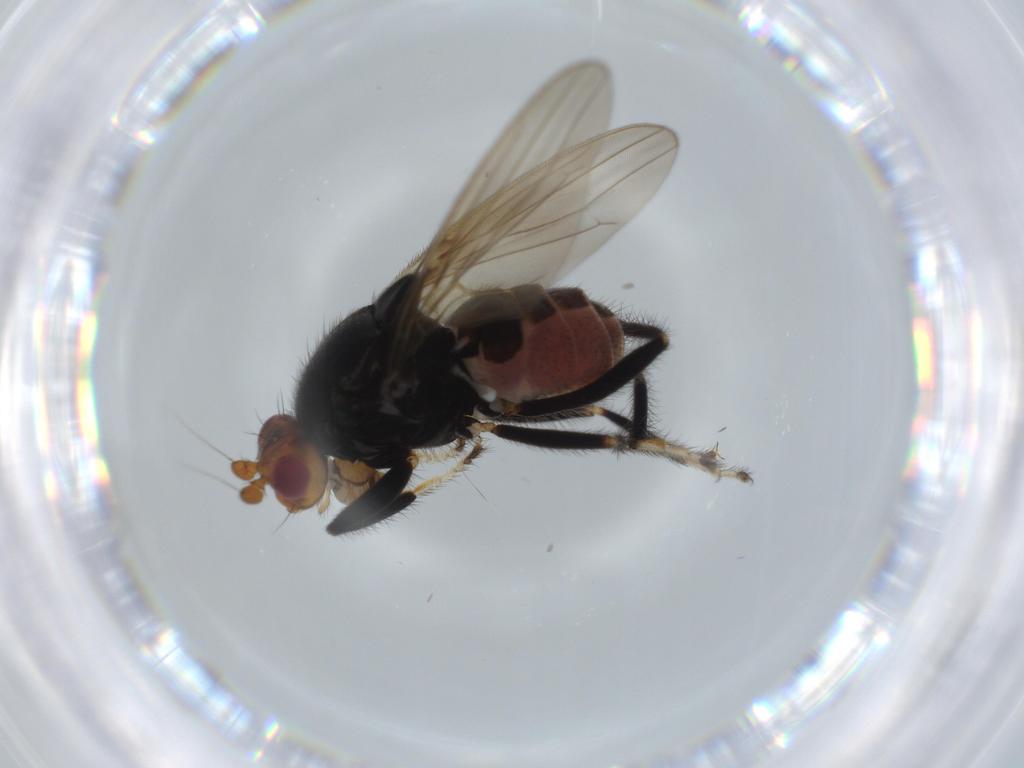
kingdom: Animalia
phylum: Arthropoda
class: Insecta
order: Diptera
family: Sphaeroceridae
